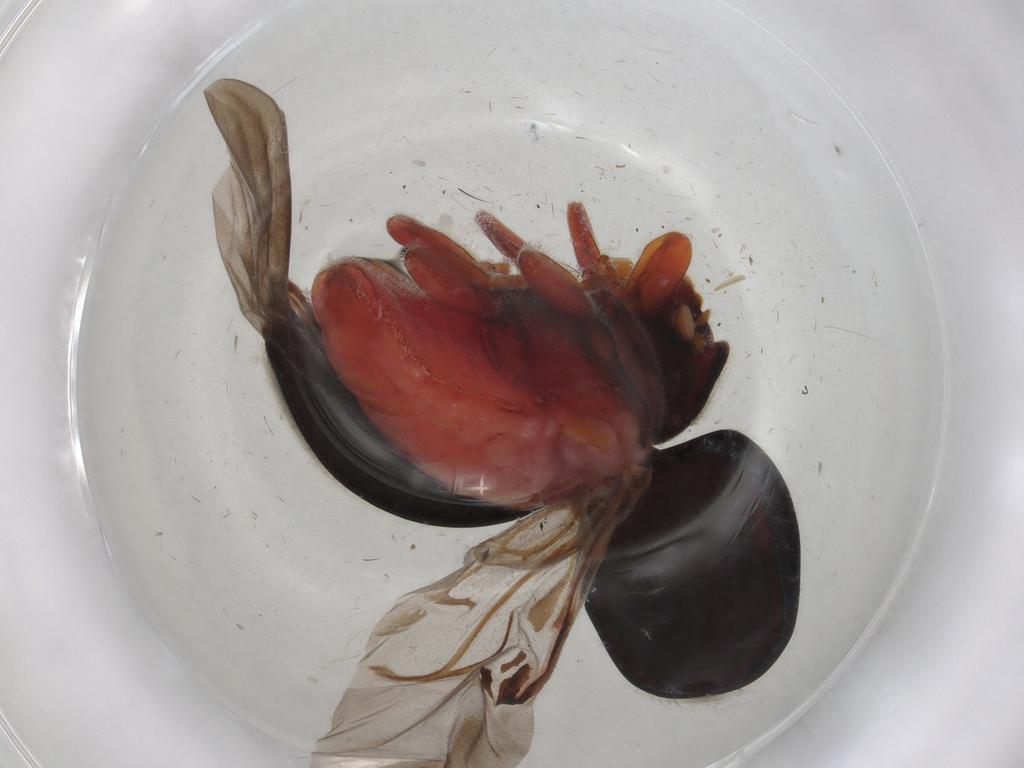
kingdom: Animalia
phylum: Arthropoda
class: Insecta
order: Coleoptera
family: Coccinellidae
